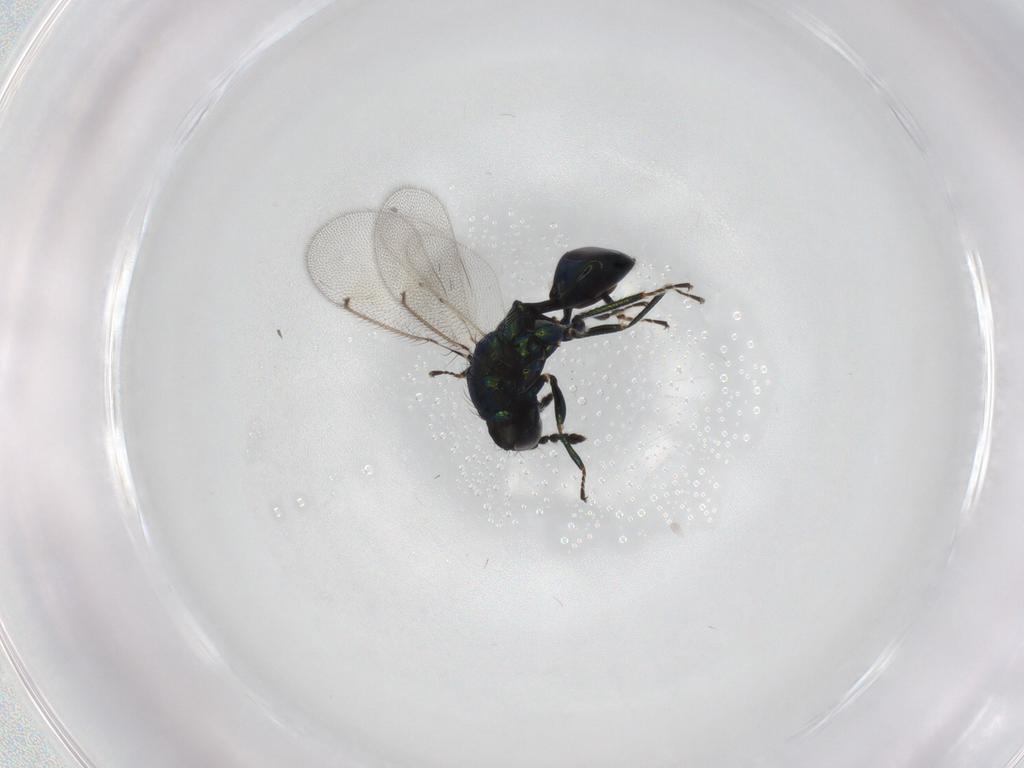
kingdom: Animalia
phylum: Arthropoda
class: Insecta
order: Hymenoptera
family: Eulophidae
